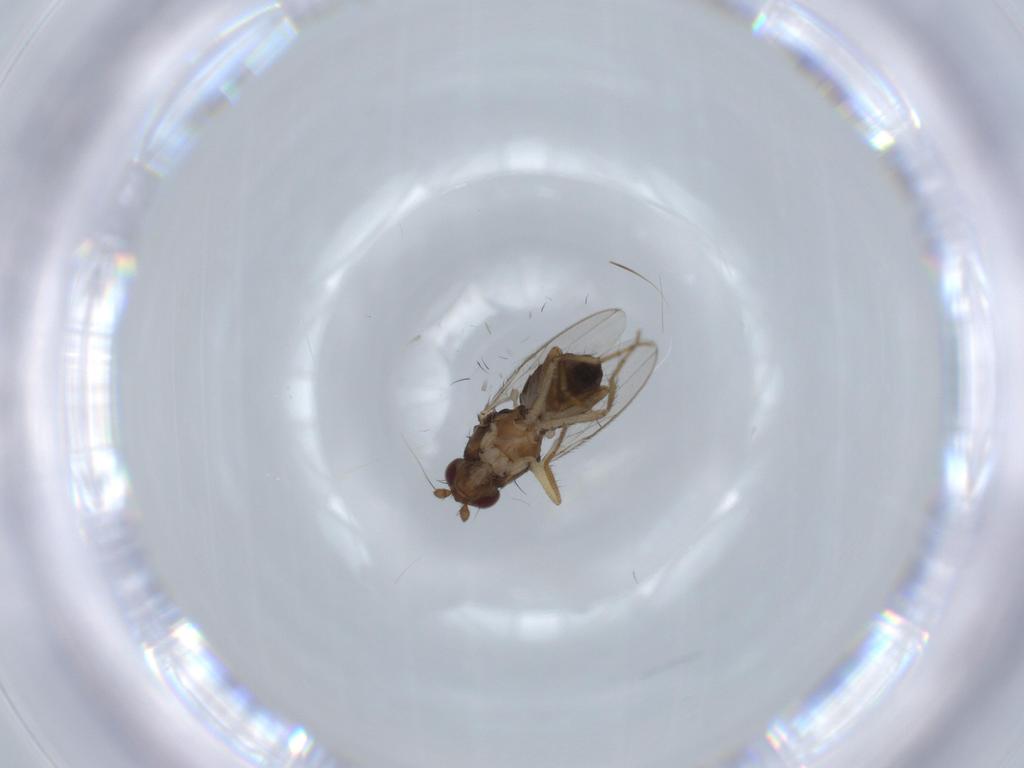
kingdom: Animalia
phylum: Arthropoda
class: Insecta
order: Diptera
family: Sphaeroceridae
